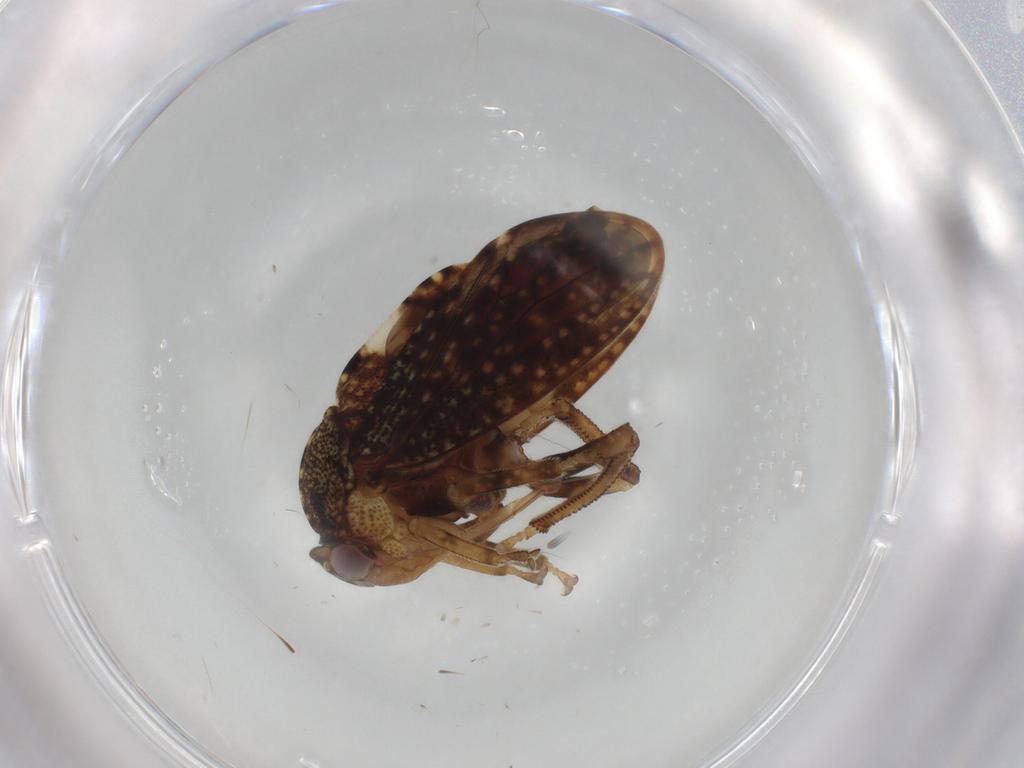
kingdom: Animalia
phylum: Arthropoda
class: Insecta
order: Hemiptera
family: Aetalionidae
